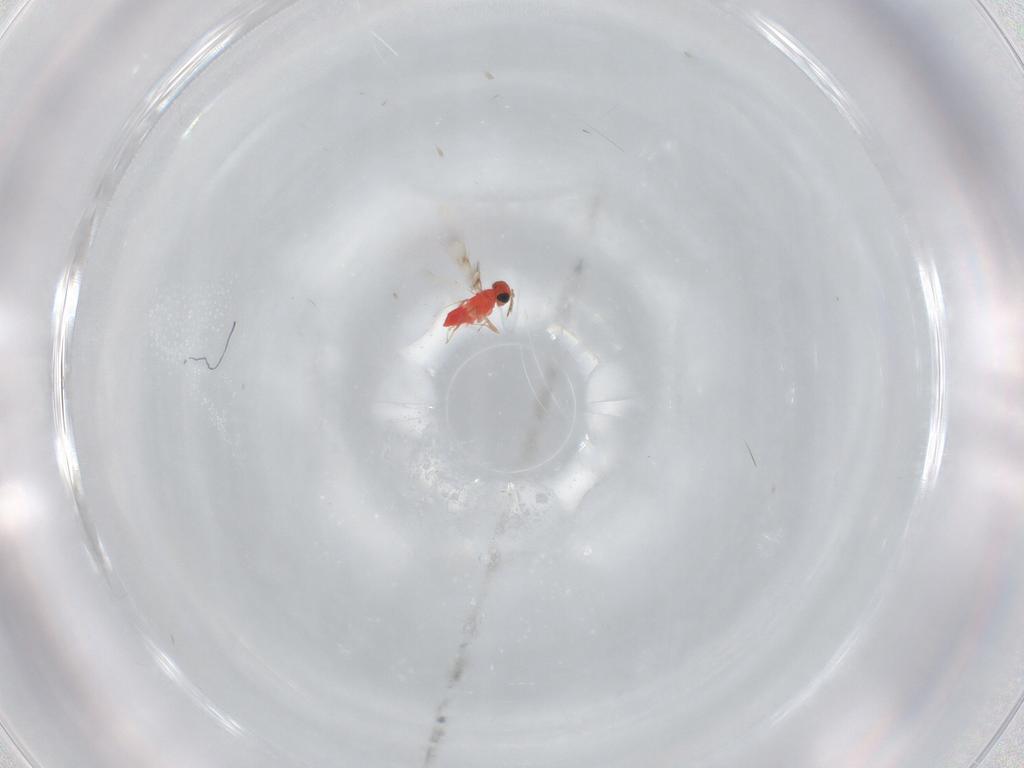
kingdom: Animalia
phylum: Arthropoda
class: Insecta
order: Hymenoptera
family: Trichogrammatidae
